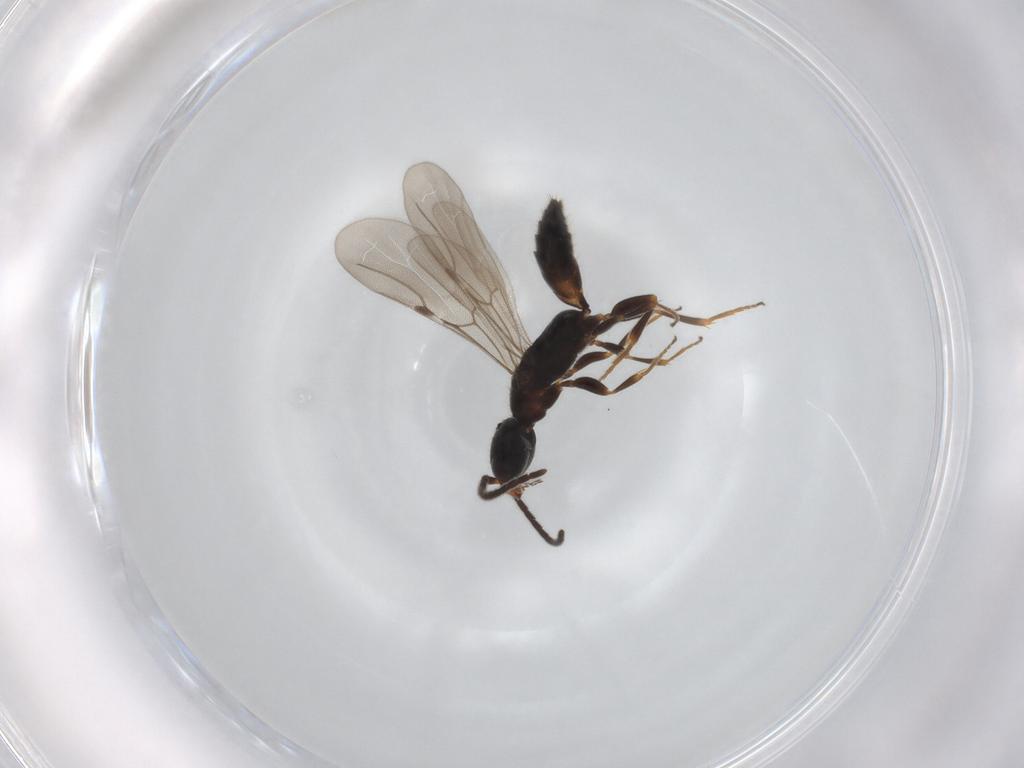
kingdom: Animalia
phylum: Arthropoda
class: Insecta
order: Hymenoptera
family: Bethylidae
